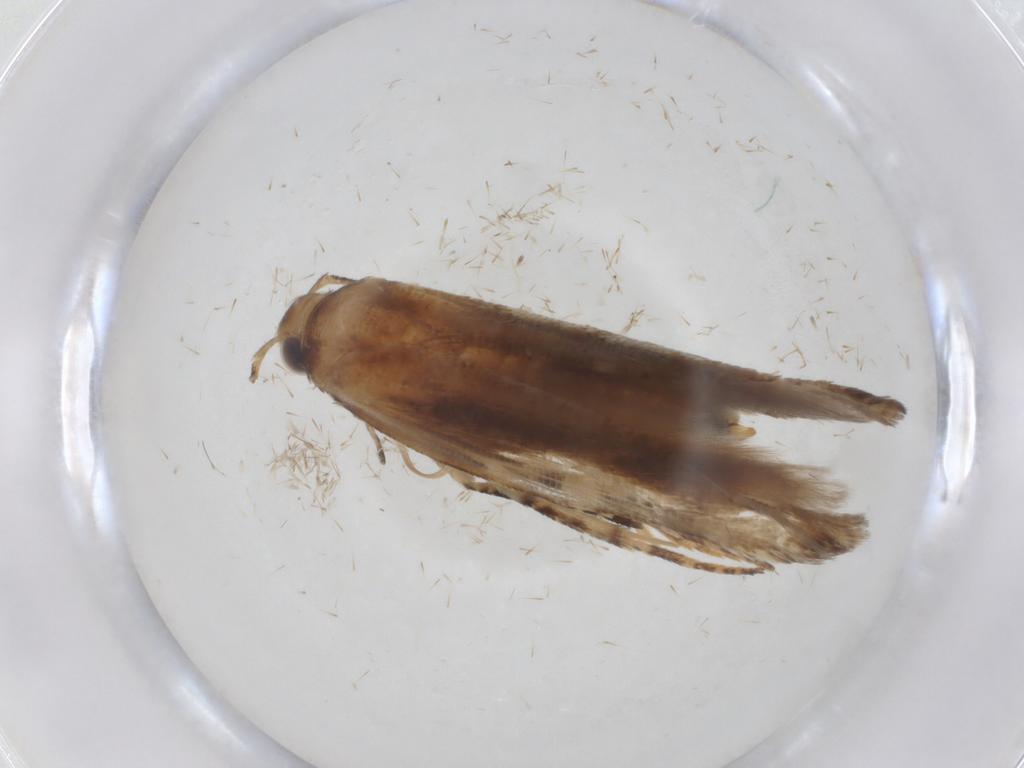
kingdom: Animalia
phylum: Arthropoda
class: Insecta
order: Lepidoptera
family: Gelechiidae
